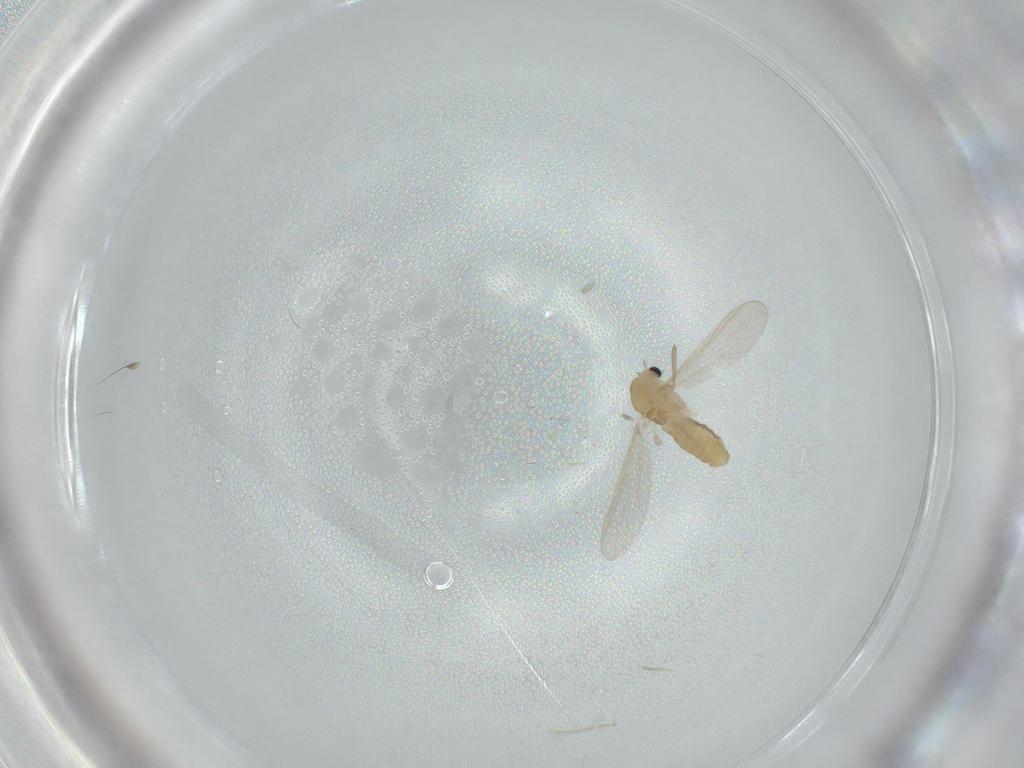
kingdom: Animalia
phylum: Arthropoda
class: Insecta
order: Diptera
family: Chironomidae
